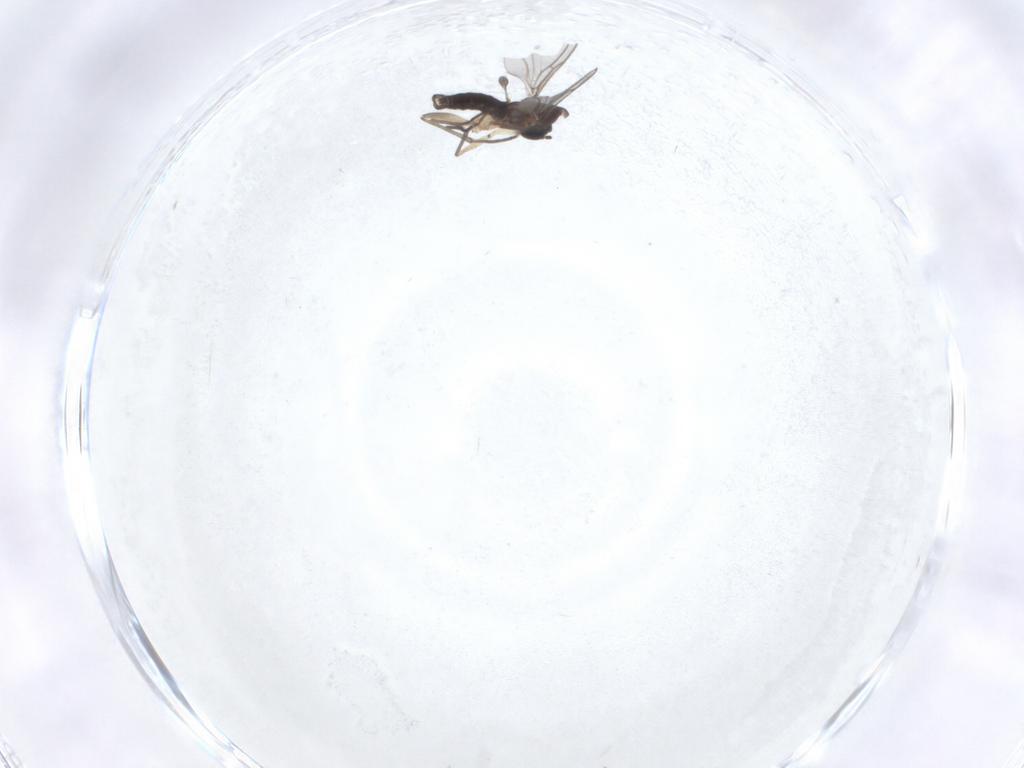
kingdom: Animalia
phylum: Arthropoda
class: Insecta
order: Diptera
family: Sciaridae
